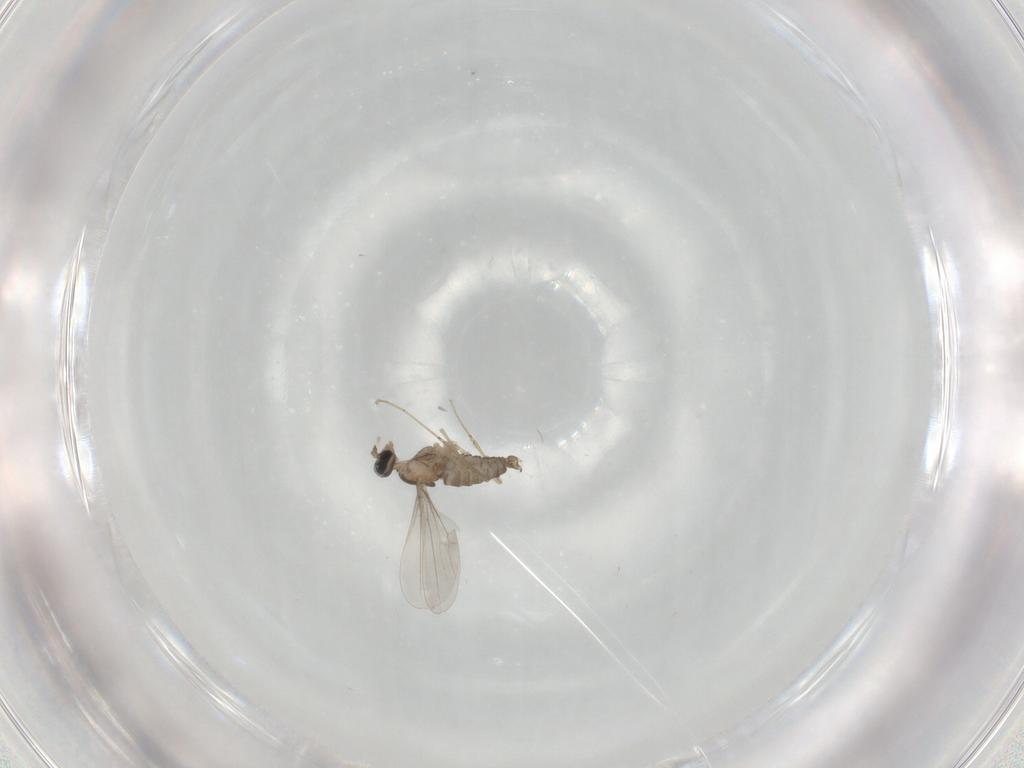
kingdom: Animalia
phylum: Arthropoda
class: Insecta
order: Diptera
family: Cecidomyiidae
